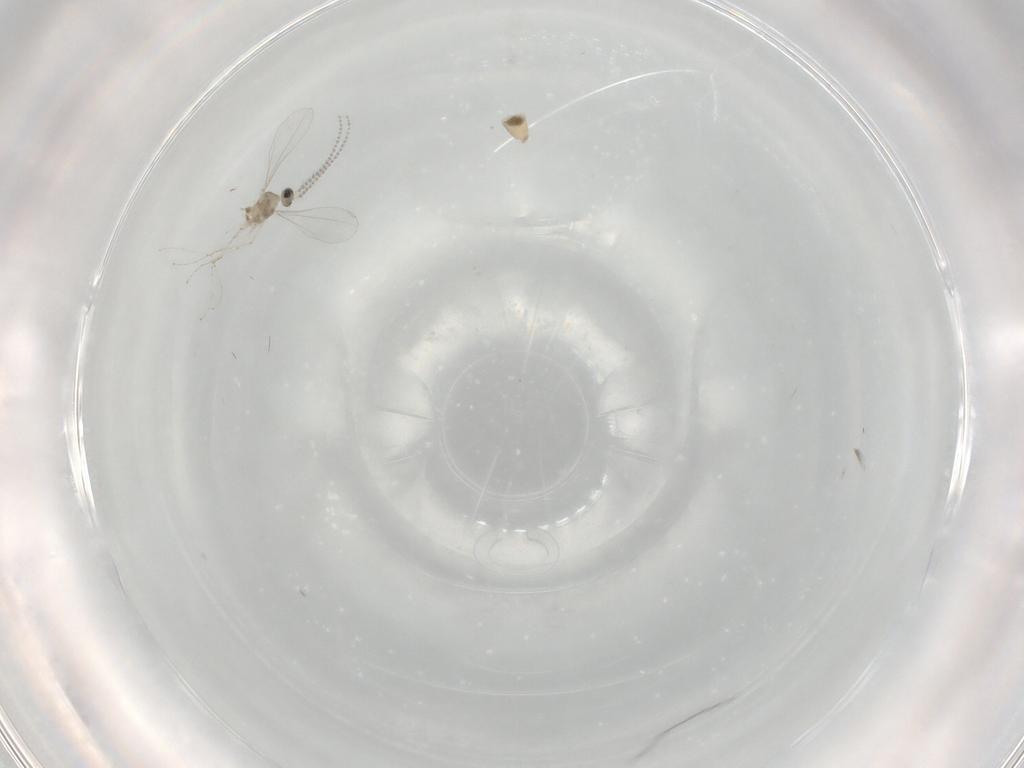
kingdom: Animalia
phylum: Arthropoda
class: Insecta
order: Diptera
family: Cecidomyiidae
